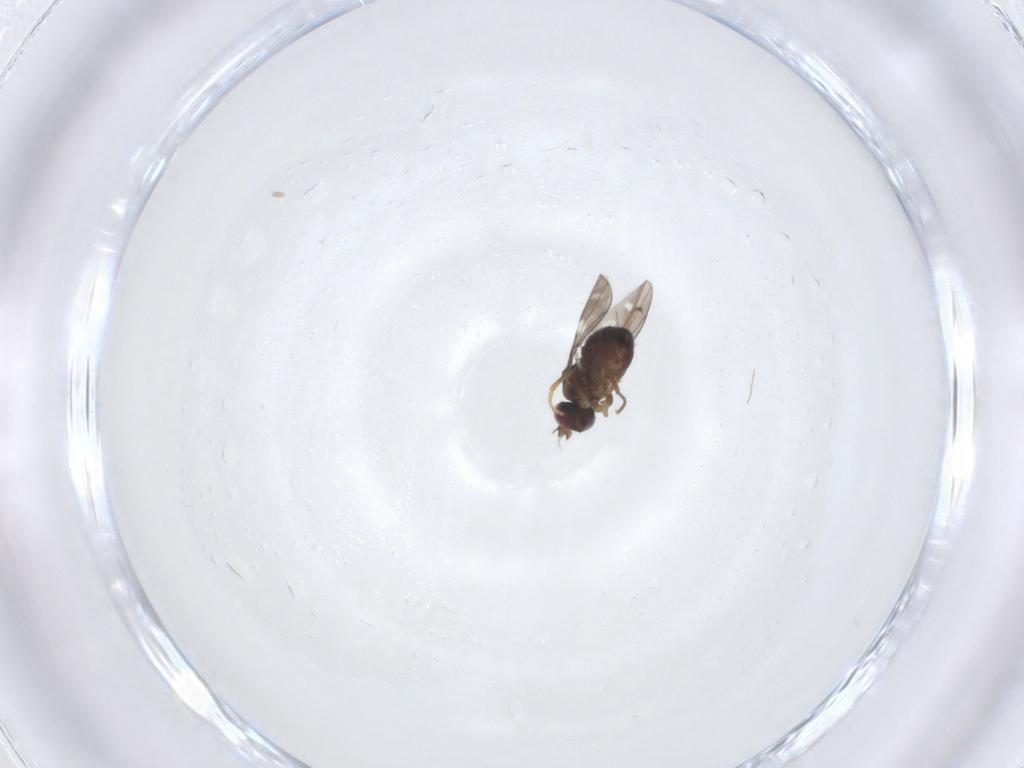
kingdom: Animalia
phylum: Arthropoda
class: Insecta
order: Diptera
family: Ephydridae
